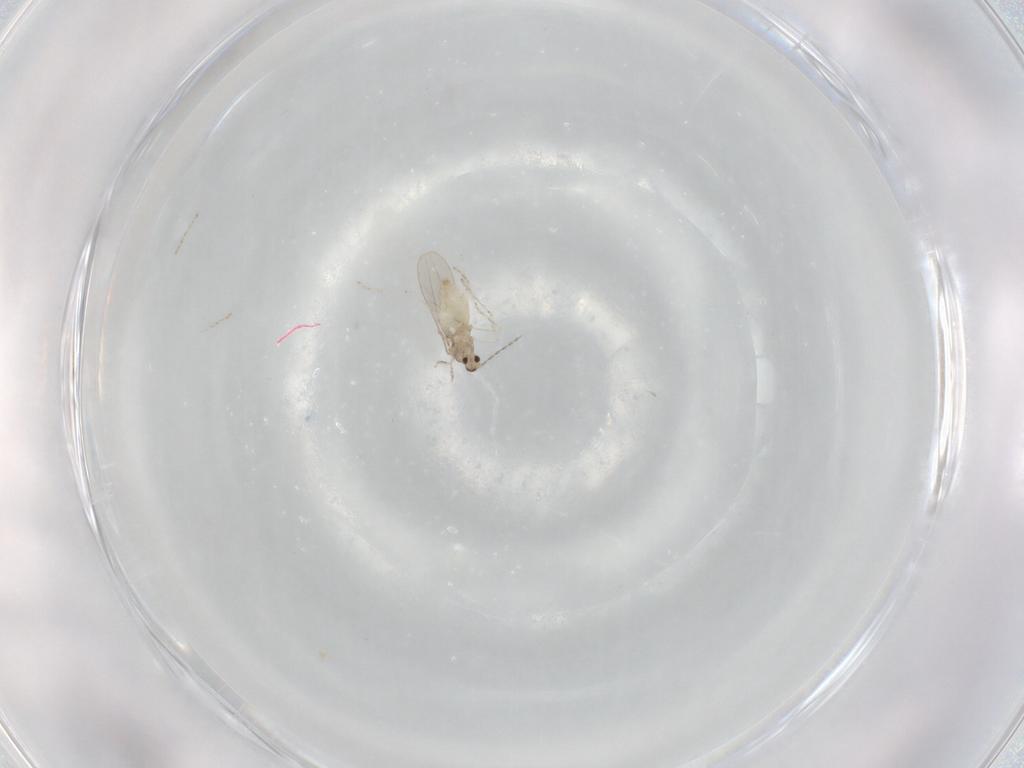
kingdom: Animalia
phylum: Arthropoda
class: Insecta
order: Diptera
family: Cecidomyiidae
